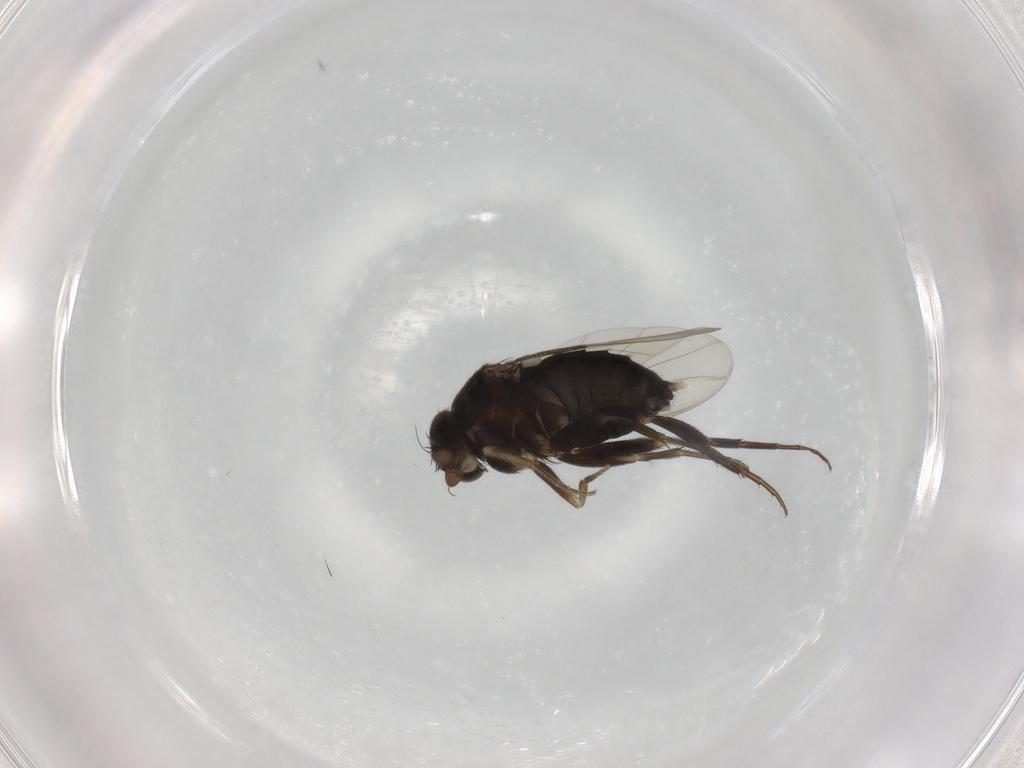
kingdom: Animalia
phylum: Arthropoda
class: Insecta
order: Diptera
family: Phoridae
